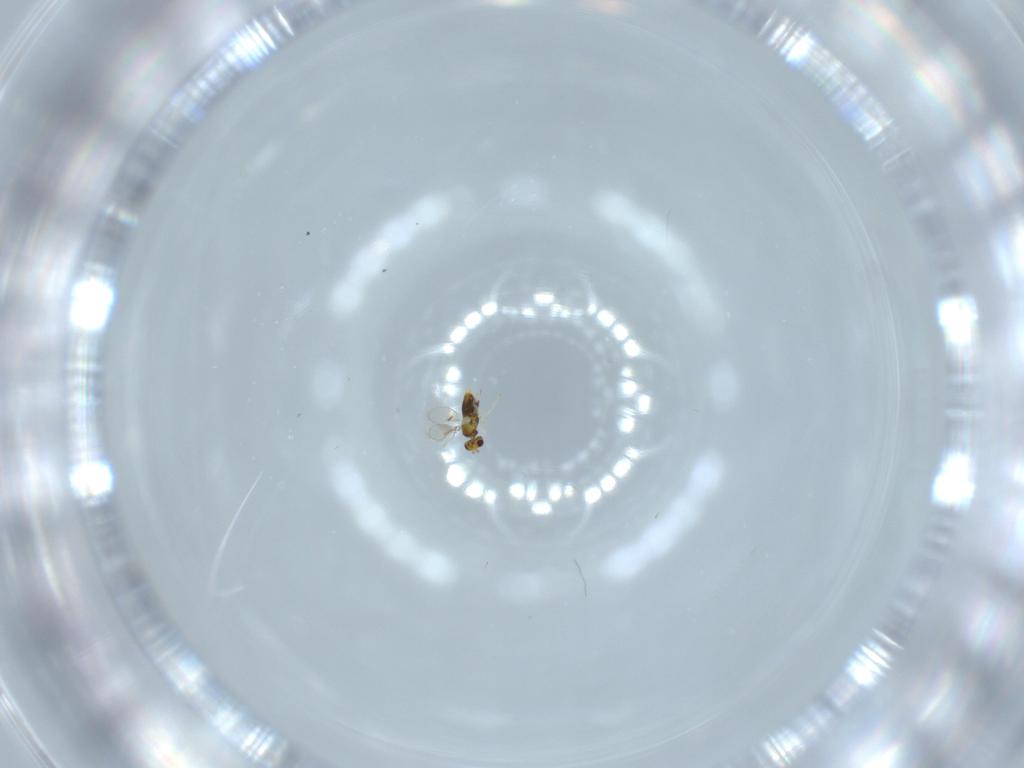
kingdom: Animalia
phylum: Arthropoda
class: Insecta
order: Hymenoptera
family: Aphelinidae
